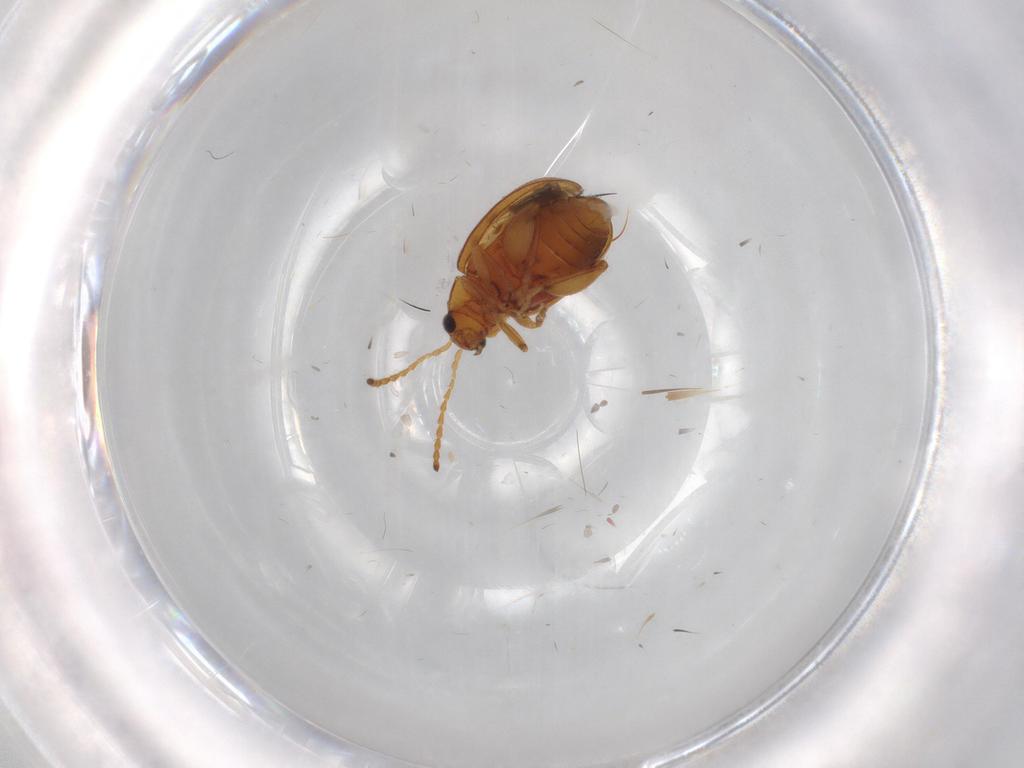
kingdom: Animalia
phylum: Arthropoda
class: Insecta
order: Coleoptera
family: Chrysomelidae
